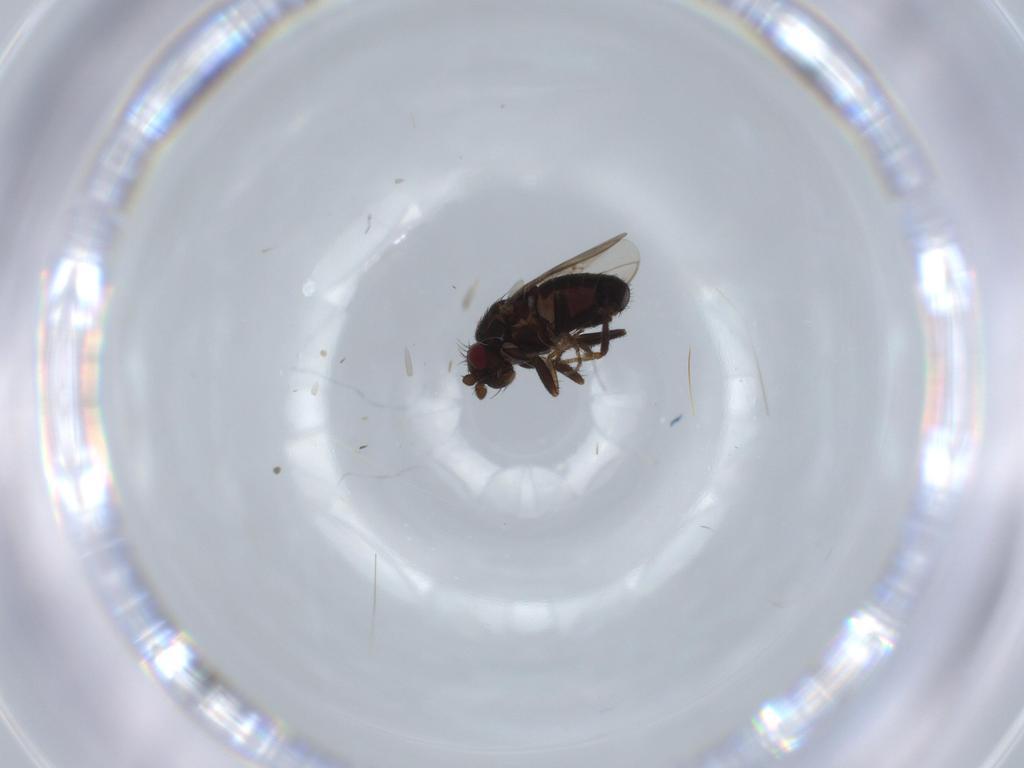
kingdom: Animalia
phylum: Arthropoda
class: Insecta
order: Diptera
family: Sphaeroceridae
